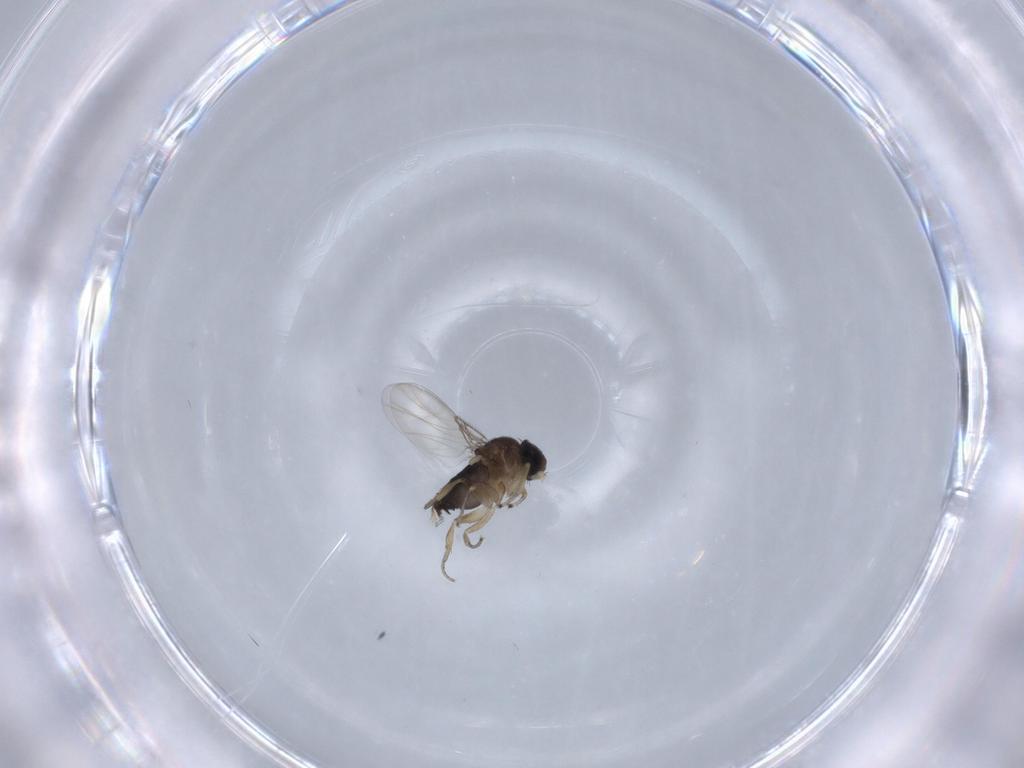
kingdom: Animalia
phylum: Arthropoda
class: Insecta
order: Diptera
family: Phoridae
